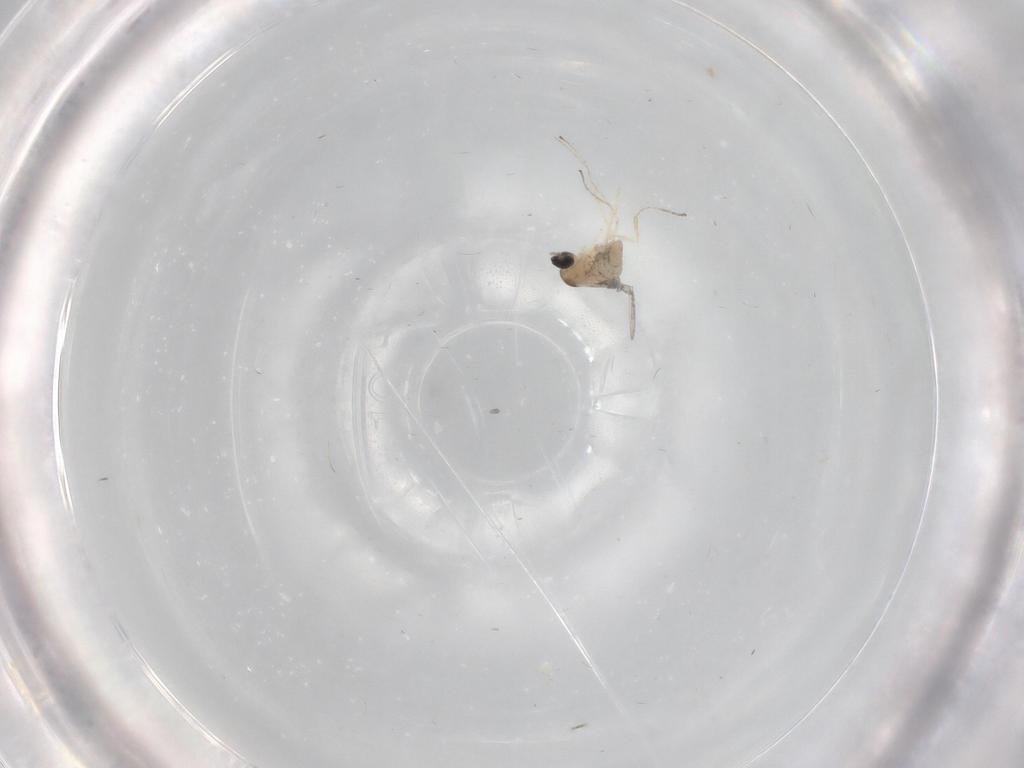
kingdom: Animalia
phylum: Arthropoda
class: Insecta
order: Diptera
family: Cecidomyiidae
